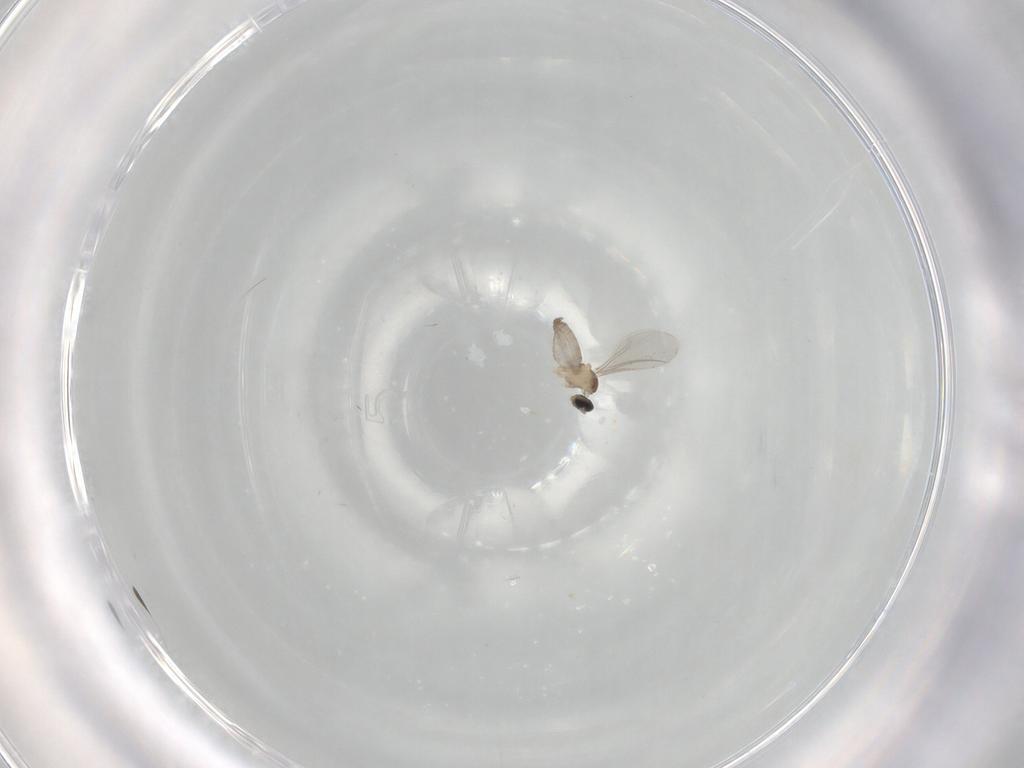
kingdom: Animalia
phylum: Arthropoda
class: Insecta
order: Diptera
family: Cecidomyiidae
